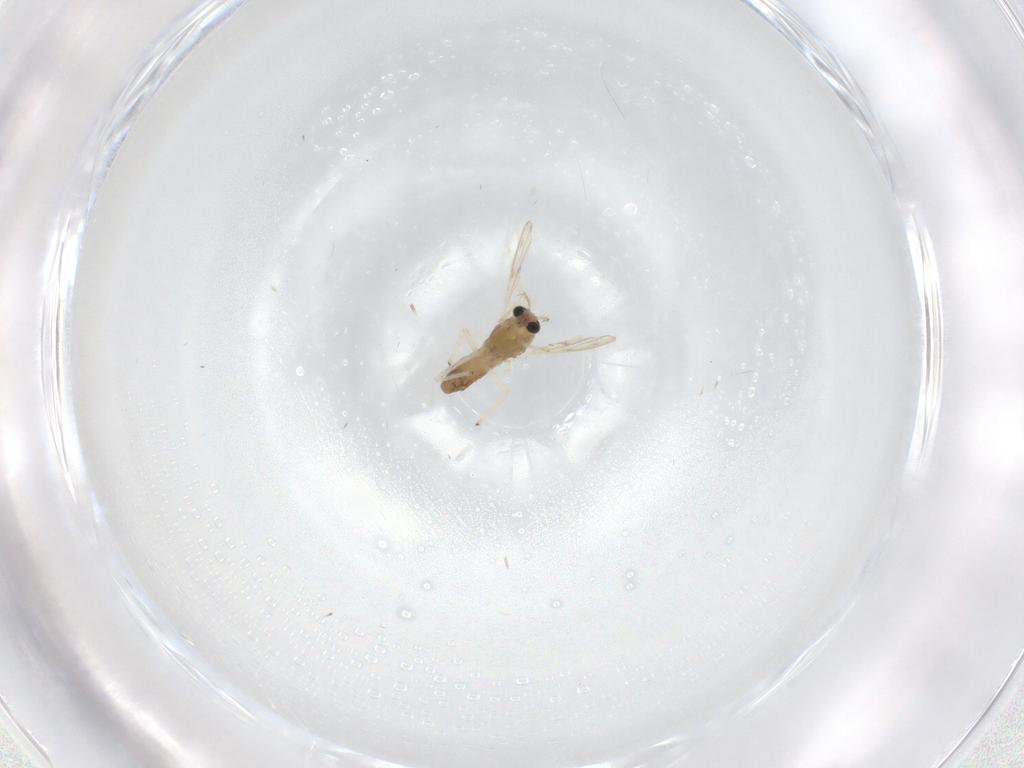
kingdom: Animalia
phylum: Arthropoda
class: Insecta
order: Diptera
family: Chironomidae
